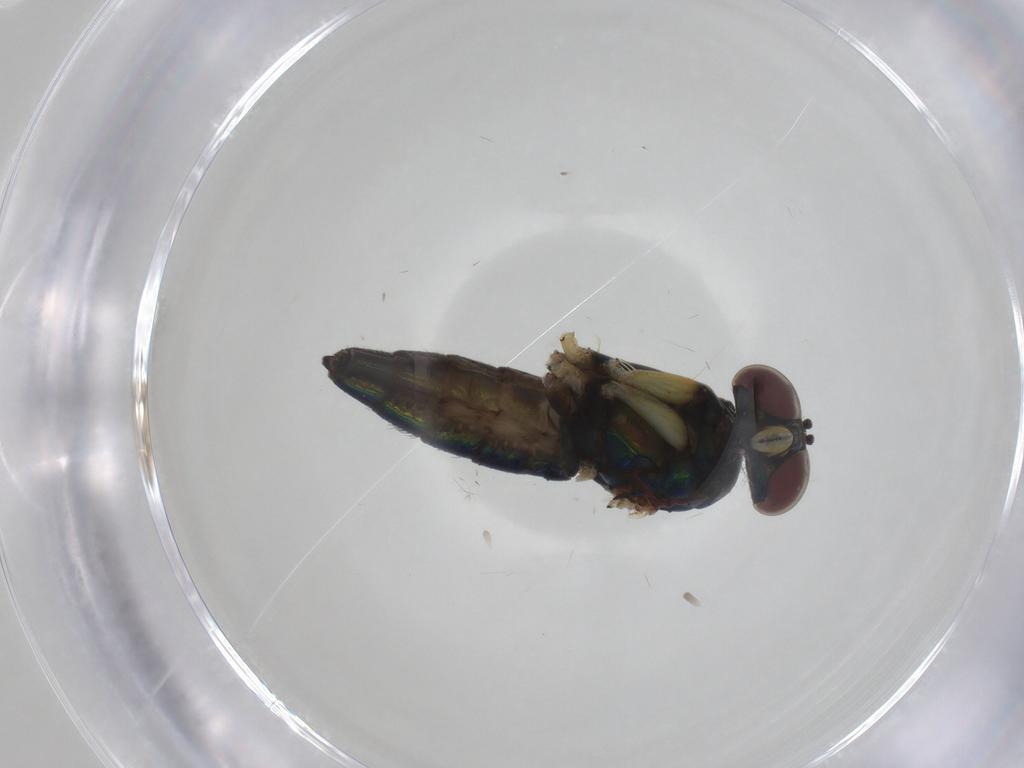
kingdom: Animalia
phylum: Arthropoda
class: Insecta
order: Diptera
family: Dolichopodidae
